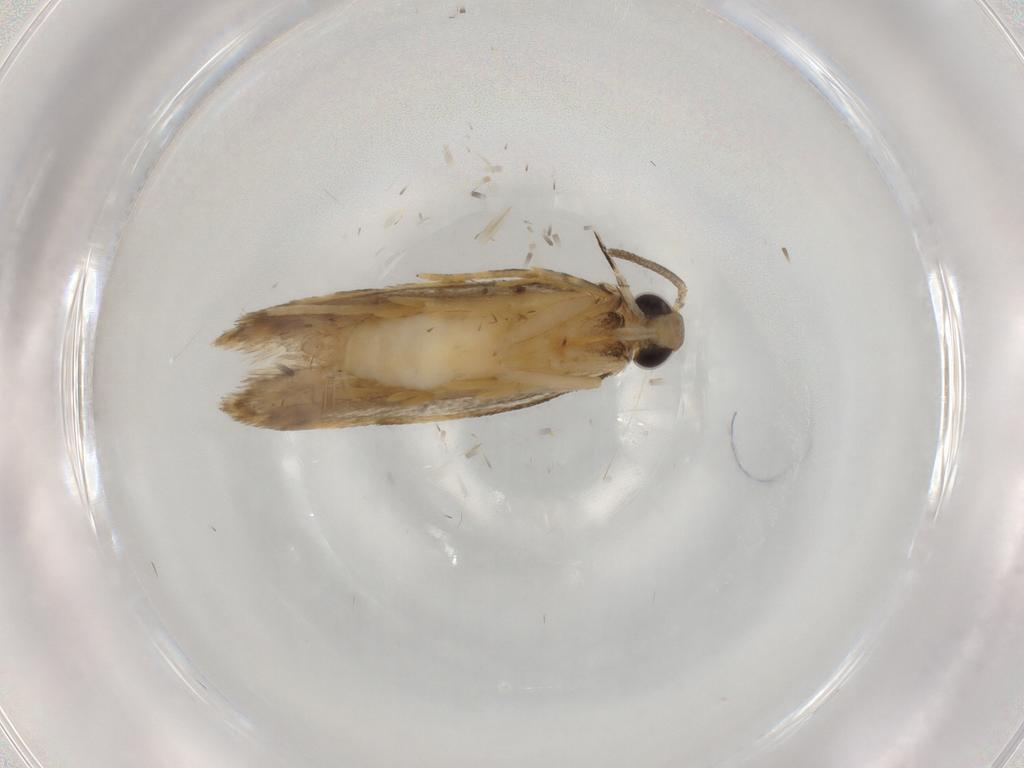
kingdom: Animalia
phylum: Arthropoda
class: Insecta
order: Lepidoptera
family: Autostichidae
